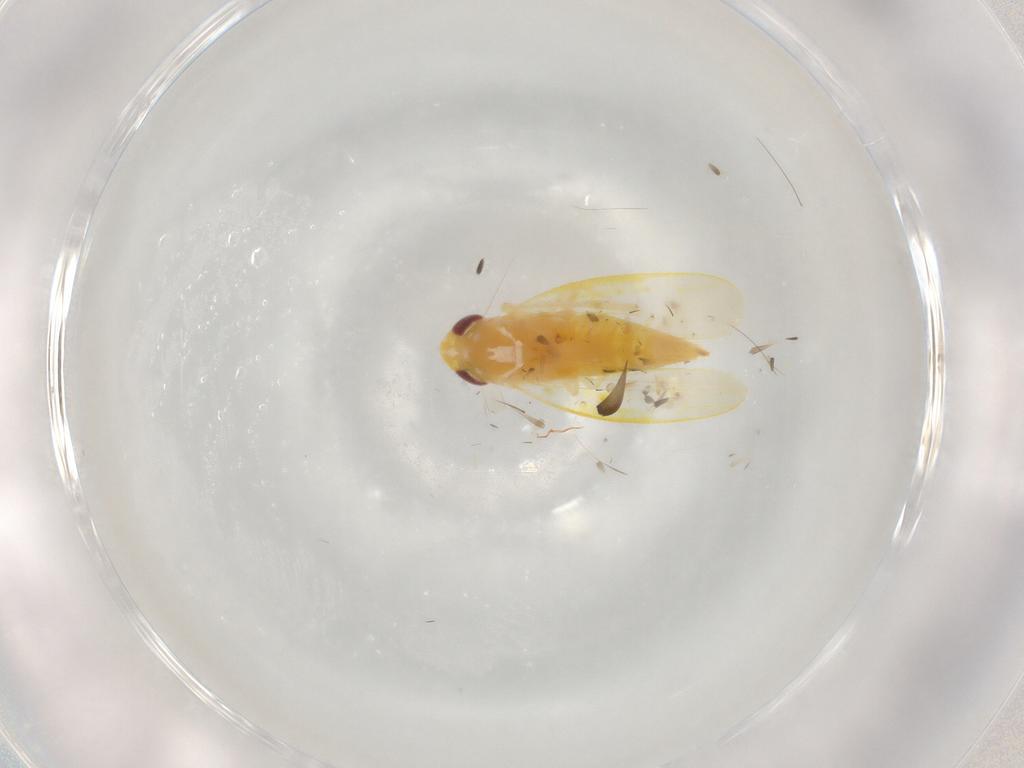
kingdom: Animalia
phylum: Arthropoda
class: Insecta
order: Hemiptera
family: Cicadellidae
